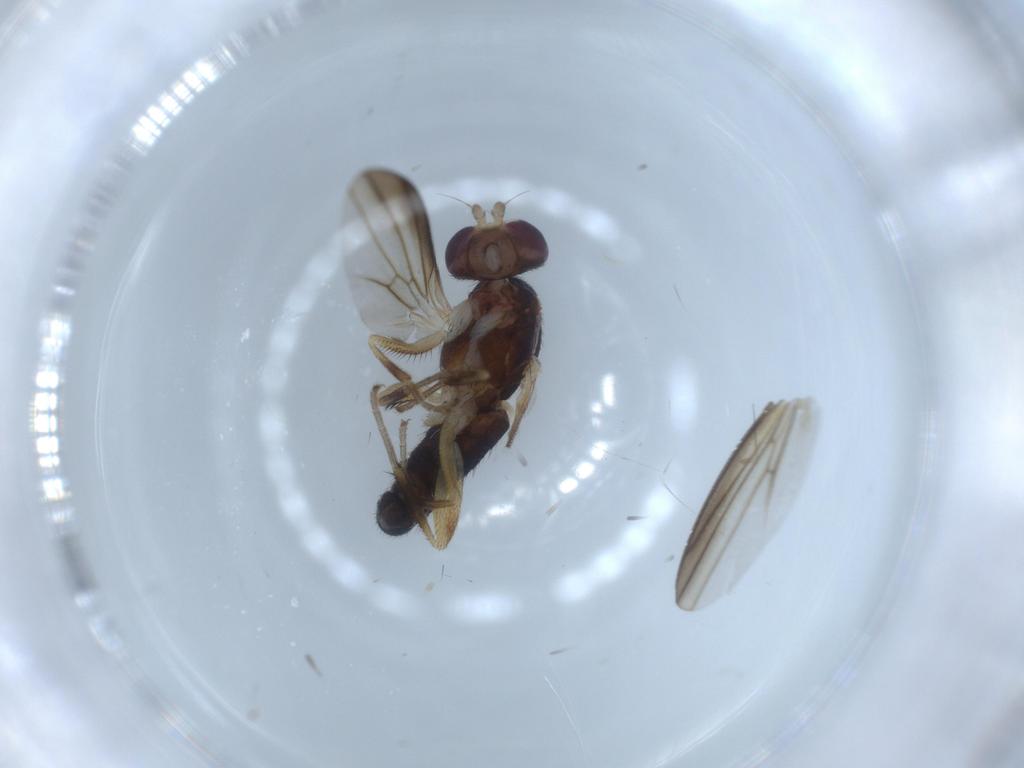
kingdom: Animalia
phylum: Arthropoda
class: Insecta
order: Diptera
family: Clusiidae
